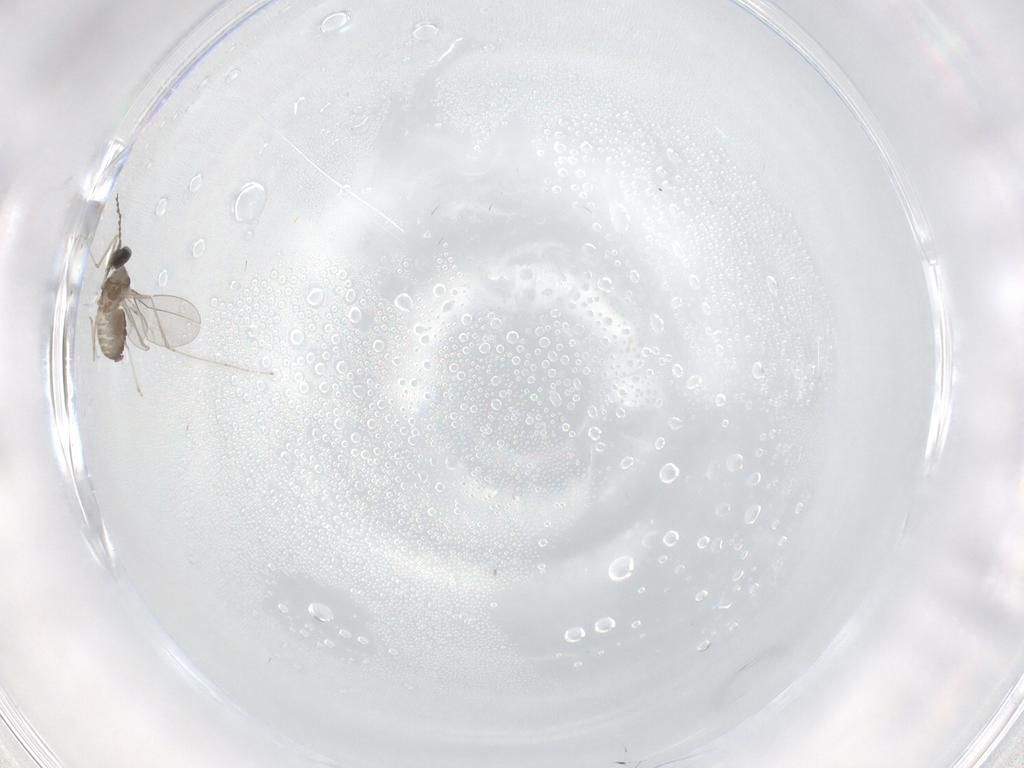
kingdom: Animalia
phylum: Arthropoda
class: Insecta
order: Diptera
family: Cecidomyiidae
